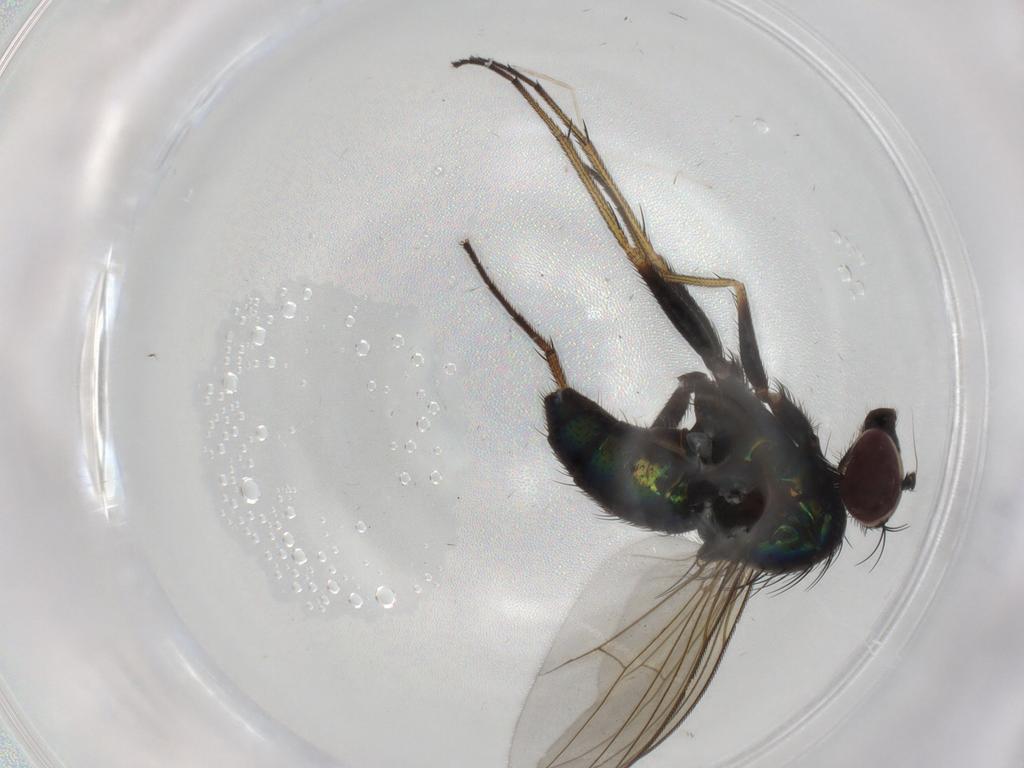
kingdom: Animalia
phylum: Arthropoda
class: Insecta
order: Diptera
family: Dolichopodidae
